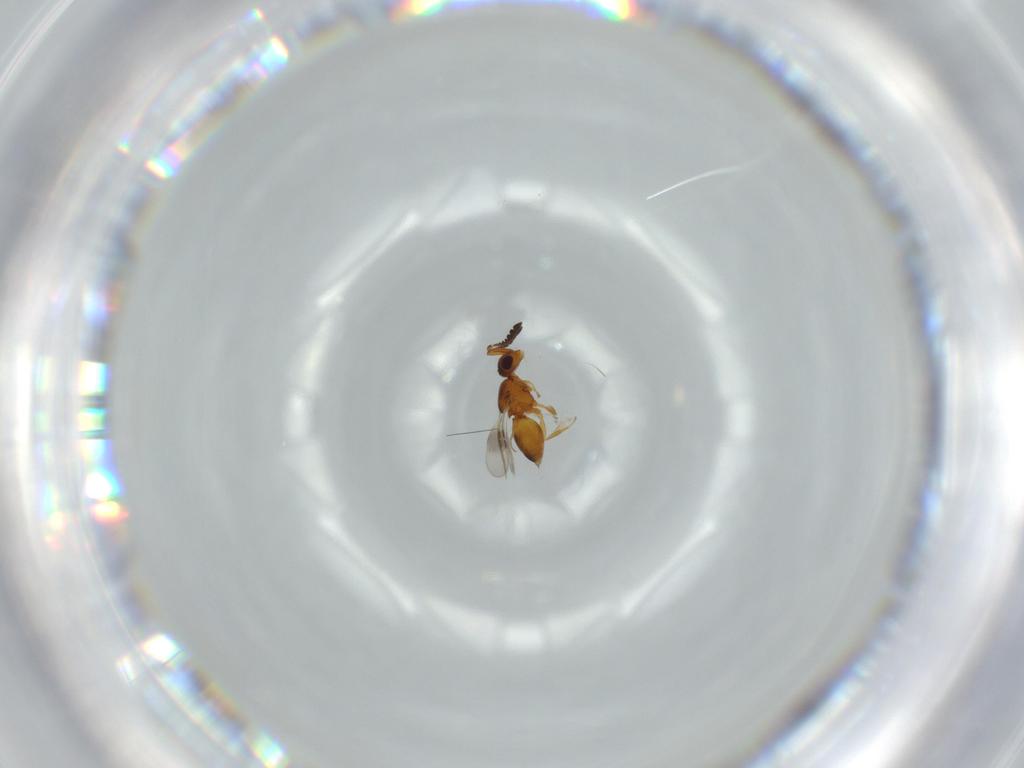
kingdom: Animalia
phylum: Arthropoda
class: Insecta
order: Hymenoptera
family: Ceraphronidae
